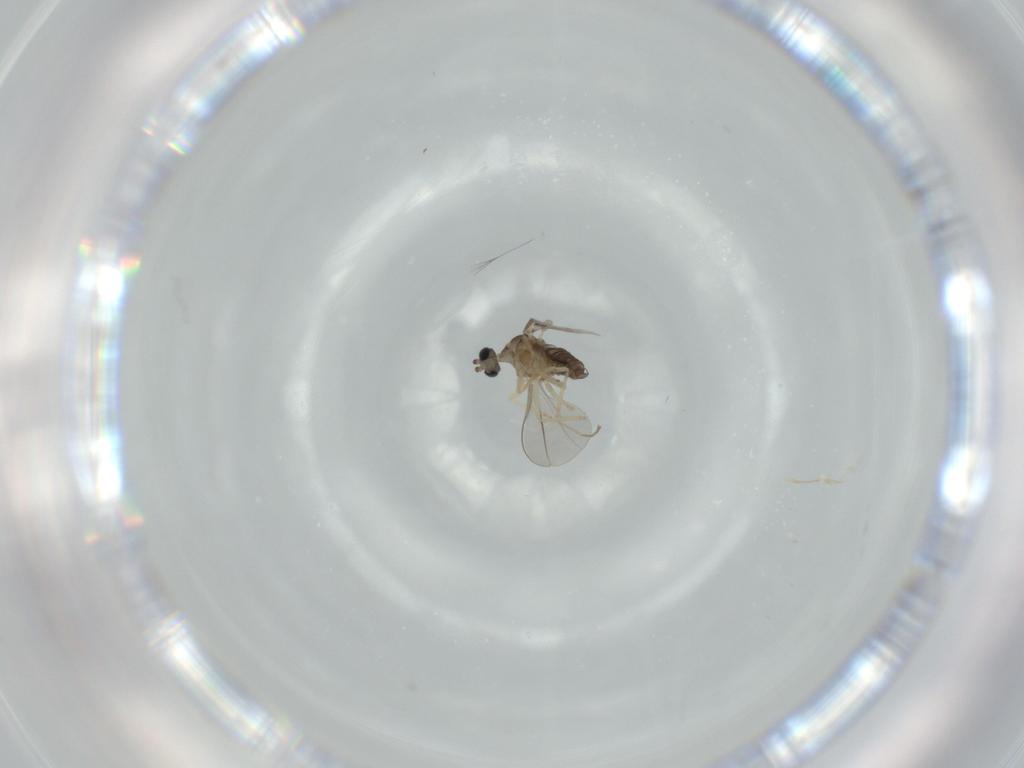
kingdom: Animalia
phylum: Arthropoda
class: Insecta
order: Diptera
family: Cecidomyiidae
